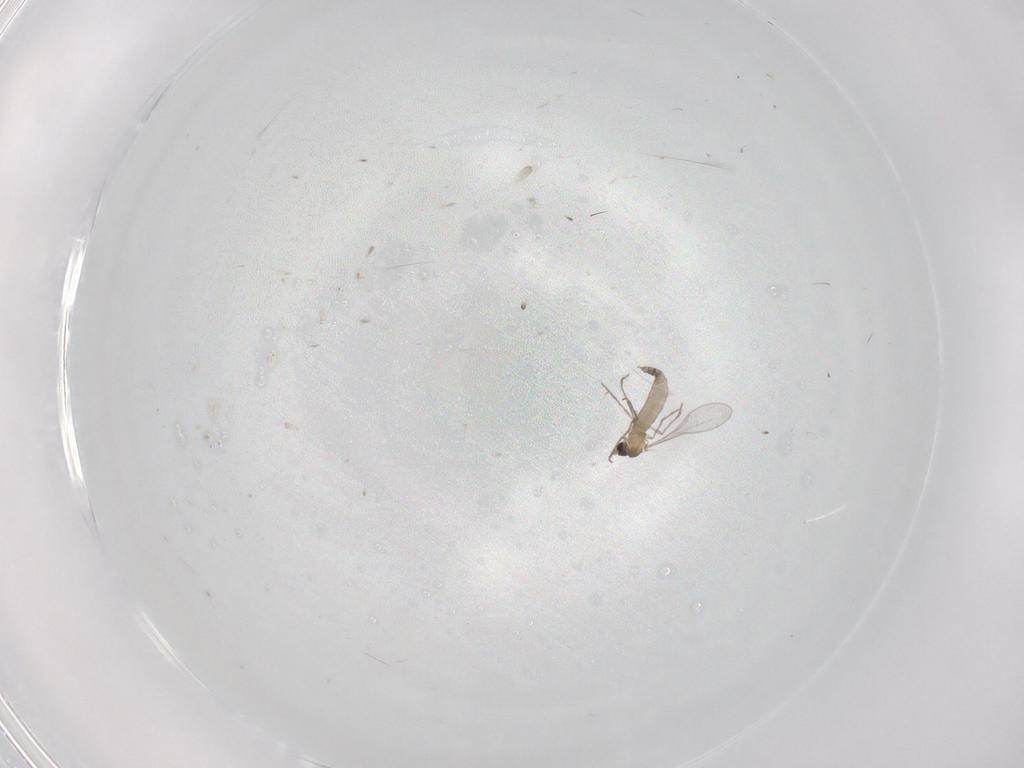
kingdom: Animalia
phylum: Arthropoda
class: Insecta
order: Diptera
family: Cecidomyiidae
